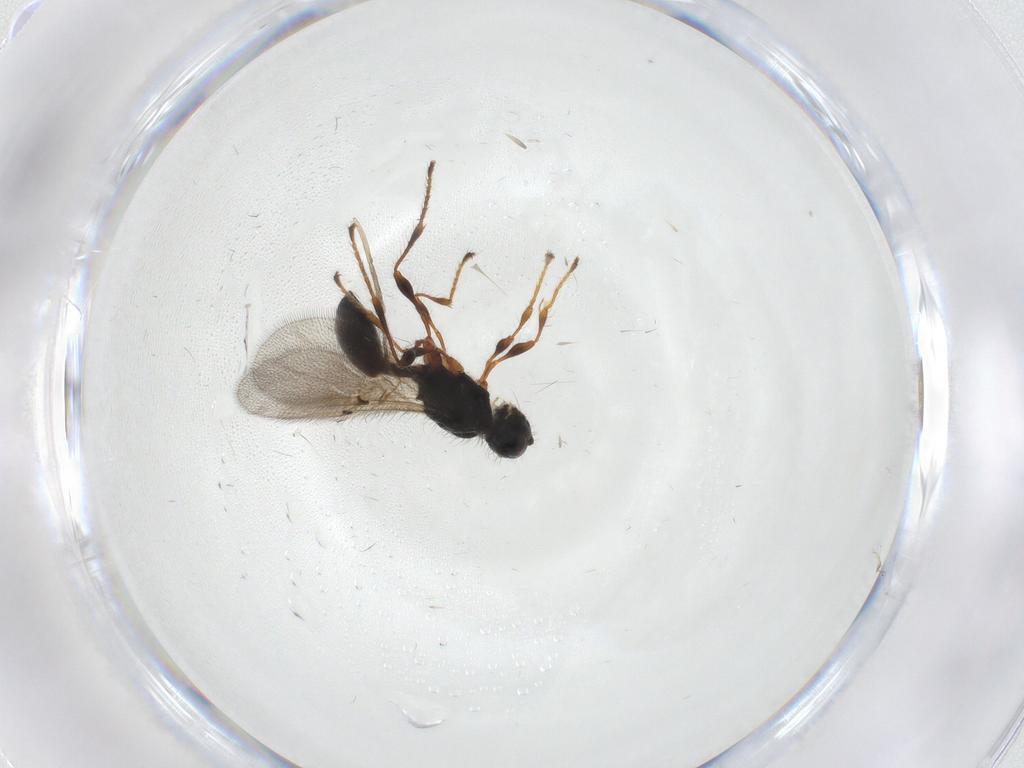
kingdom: Animalia
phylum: Arthropoda
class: Insecta
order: Hymenoptera
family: Diapriidae
